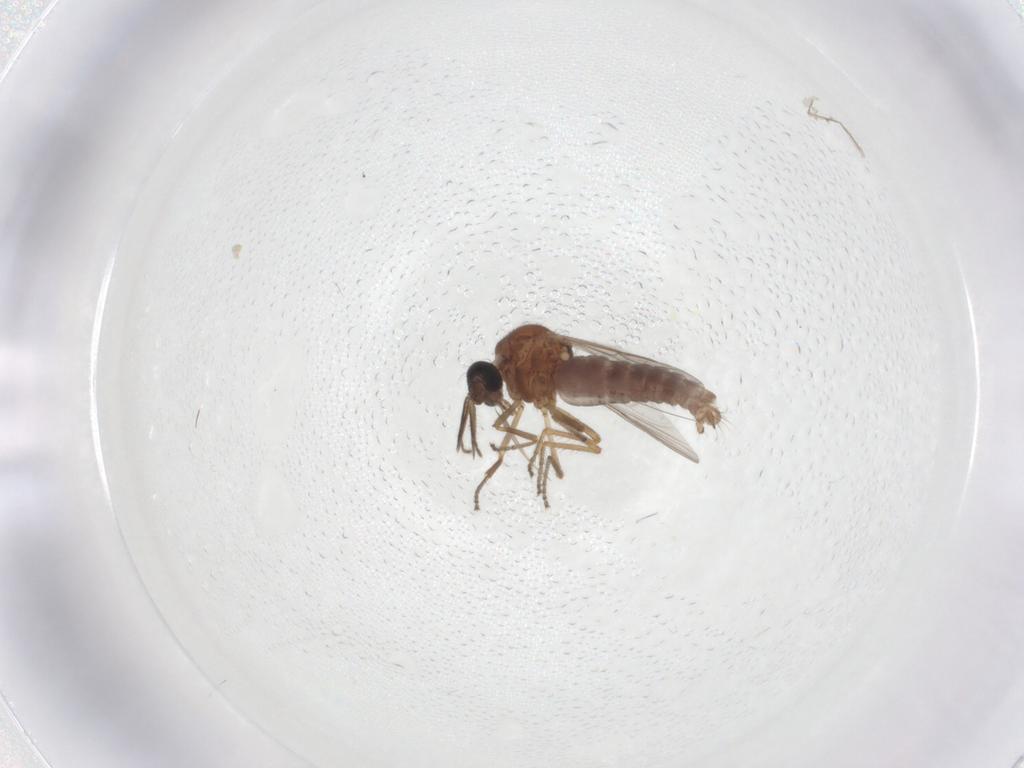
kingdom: Animalia
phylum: Arthropoda
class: Insecta
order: Diptera
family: Ceratopogonidae
